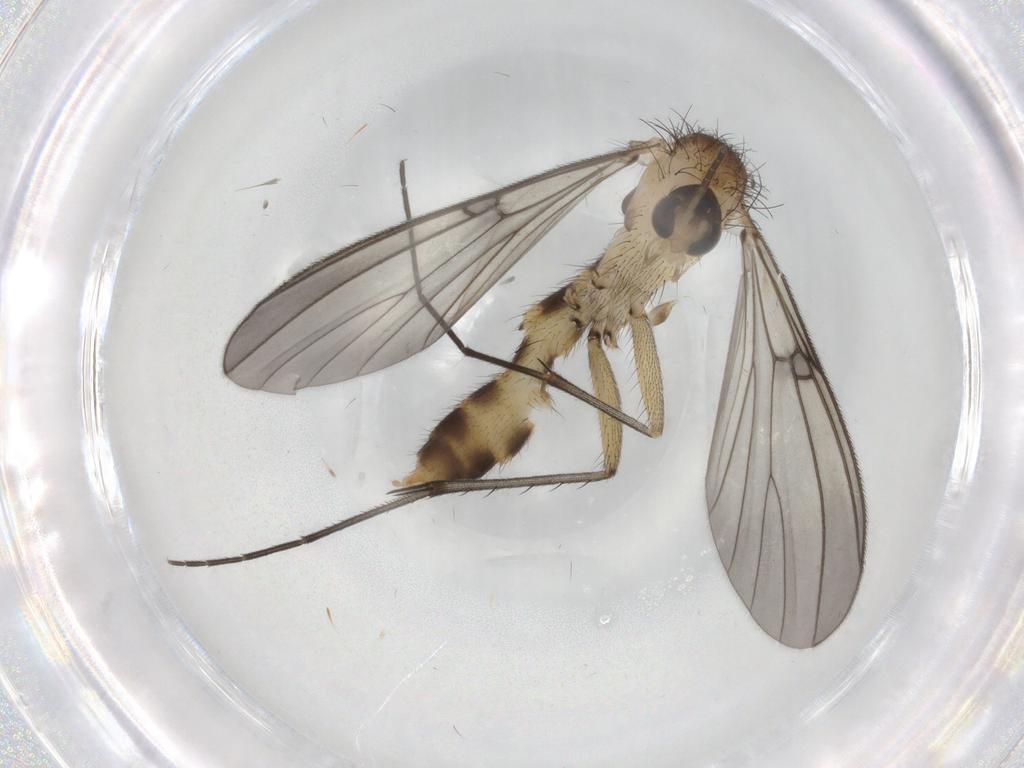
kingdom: Animalia
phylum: Arthropoda
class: Insecta
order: Diptera
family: Mycetophilidae
